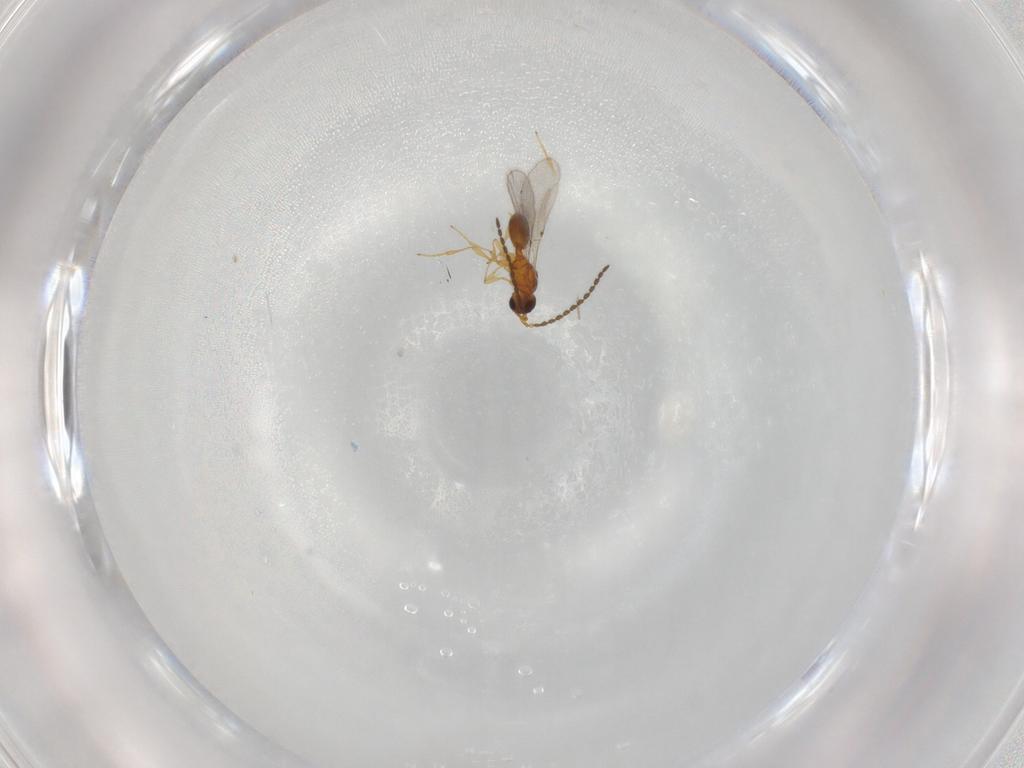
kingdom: Animalia
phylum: Arthropoda
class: Insecta
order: Hymenoptera
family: Diapriidae
